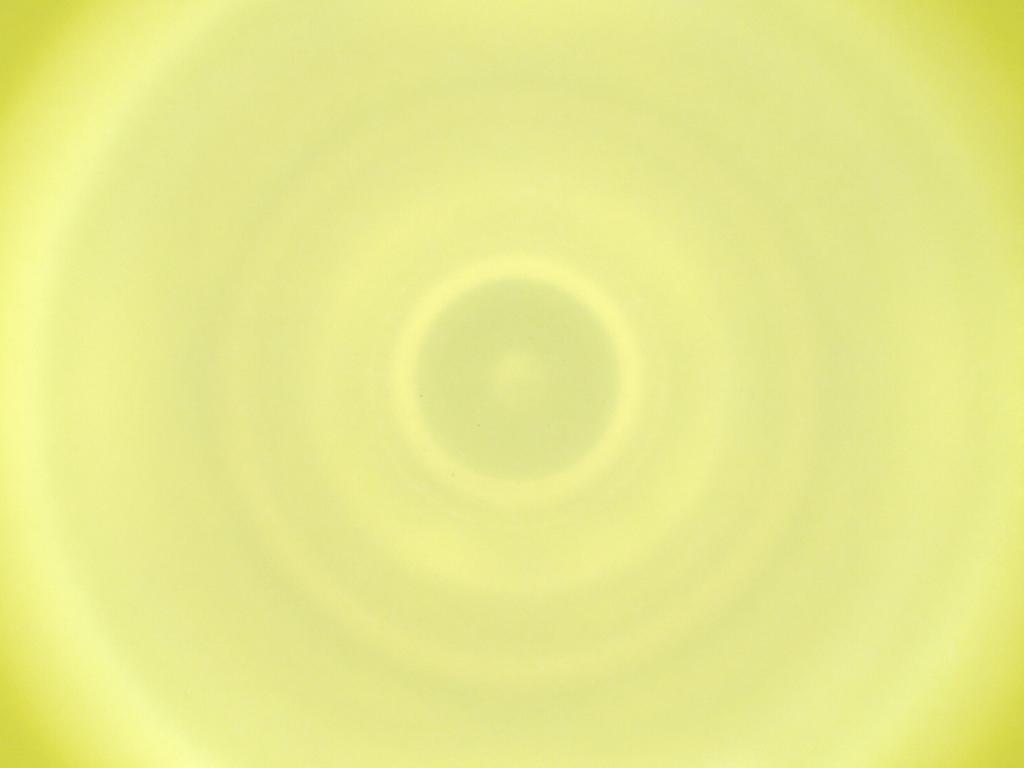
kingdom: Animalia
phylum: Arthropoda
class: Insecta
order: Diptera
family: Cecidomyiidae
